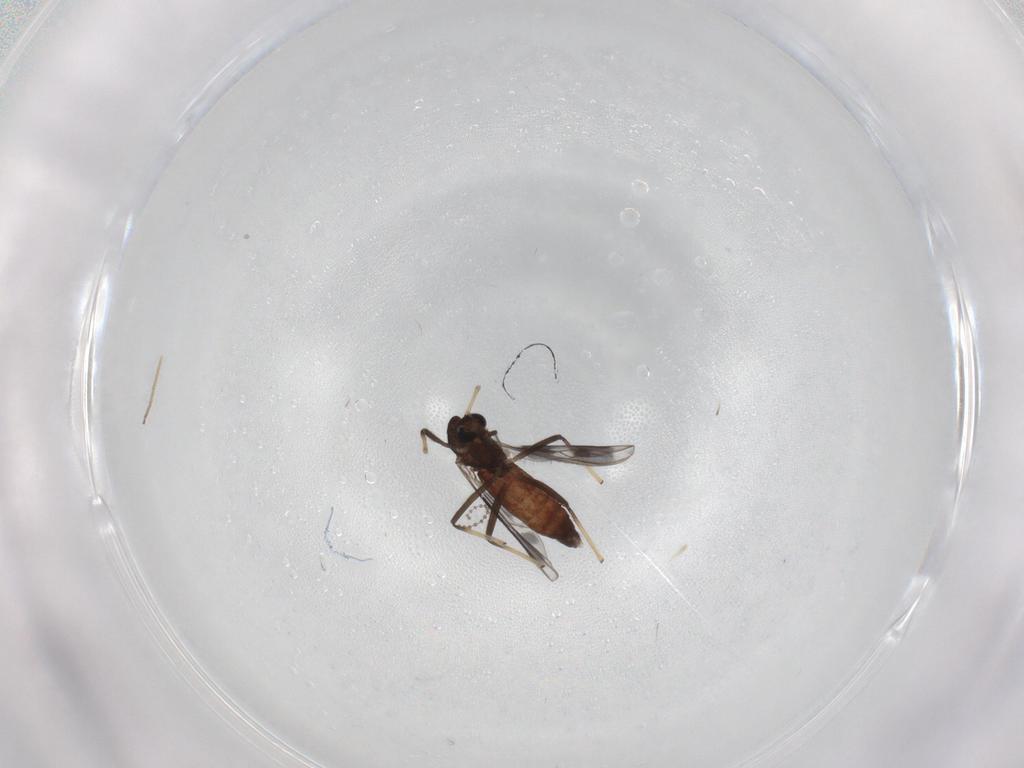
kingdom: Animalia
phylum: Arthropoda
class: Insecta
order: Diptera
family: Chironomidae
